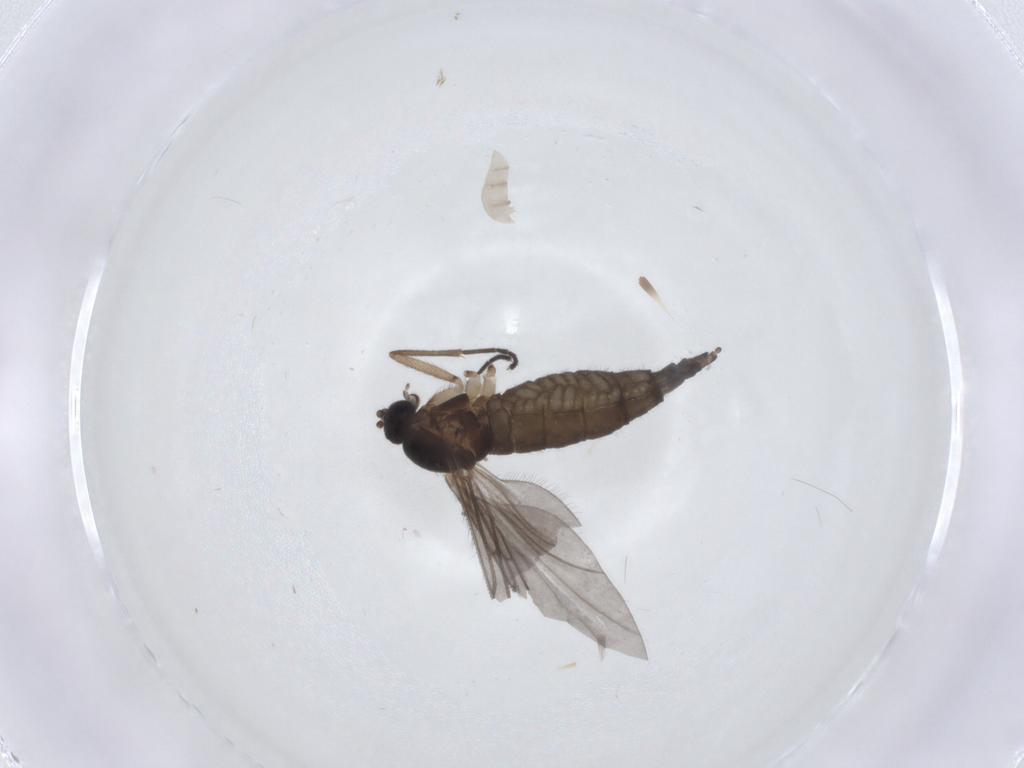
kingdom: Animalia
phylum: Arthropoda
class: Insecta
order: Diptera
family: Sciaridae
